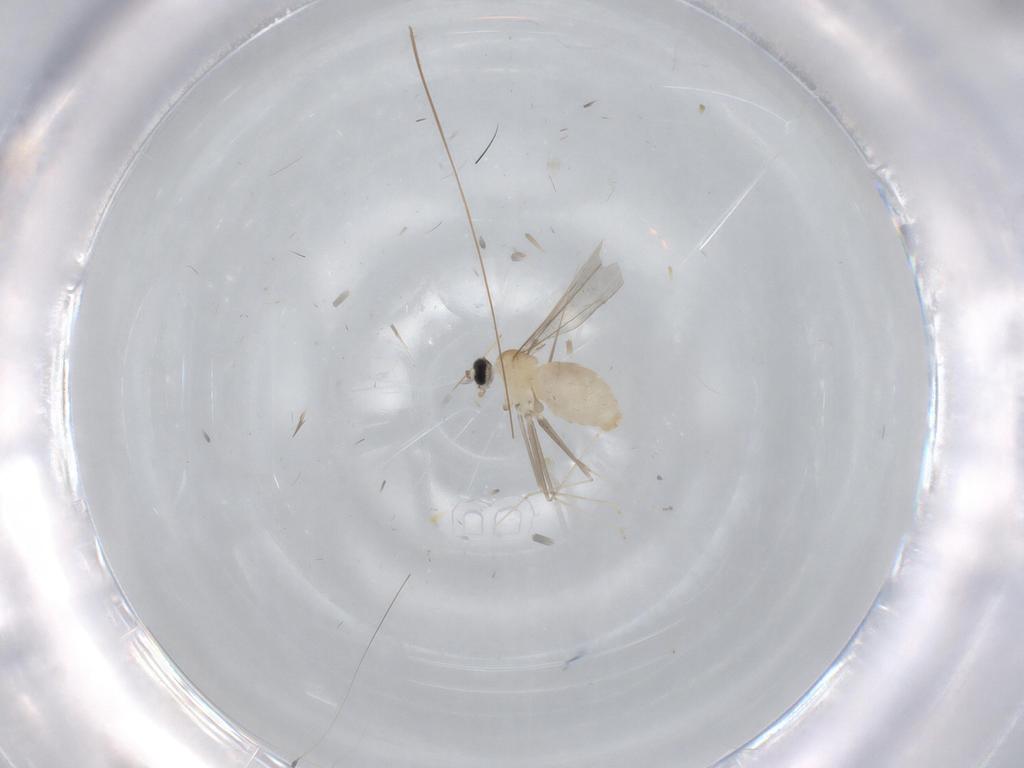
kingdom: Animalia
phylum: Arthropoda
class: Insecta
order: Diptera
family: Cecidomyiidae
